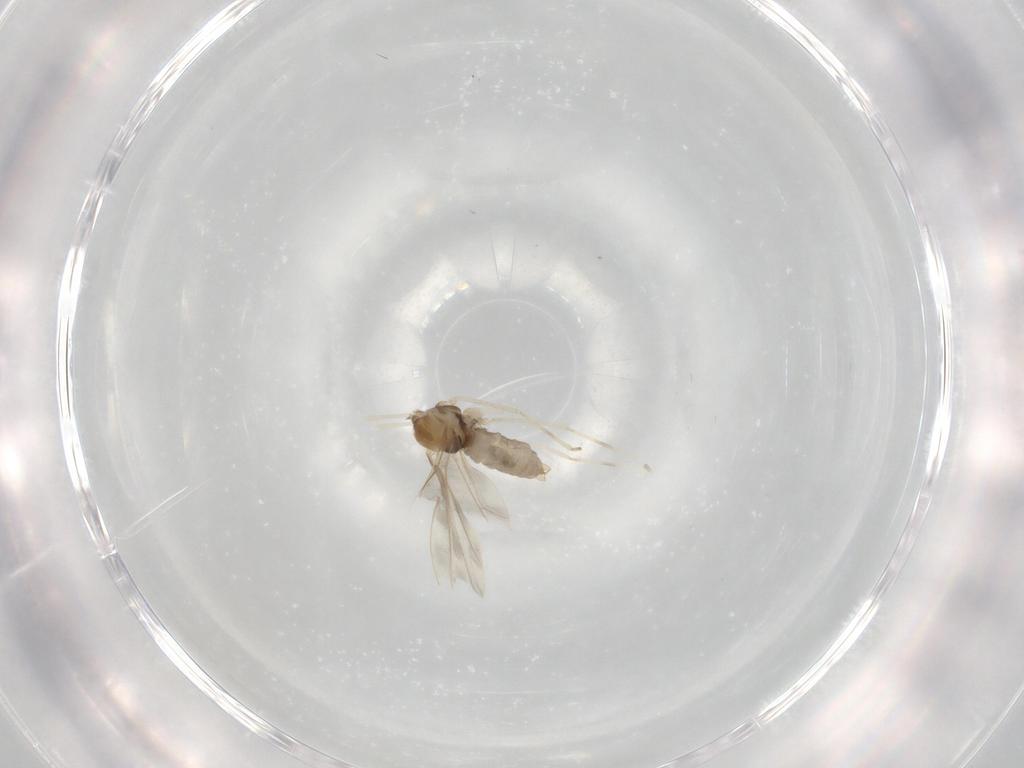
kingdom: Animalia
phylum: Arthropoda
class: Insecta
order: Diptera
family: Cecidomyiidae
